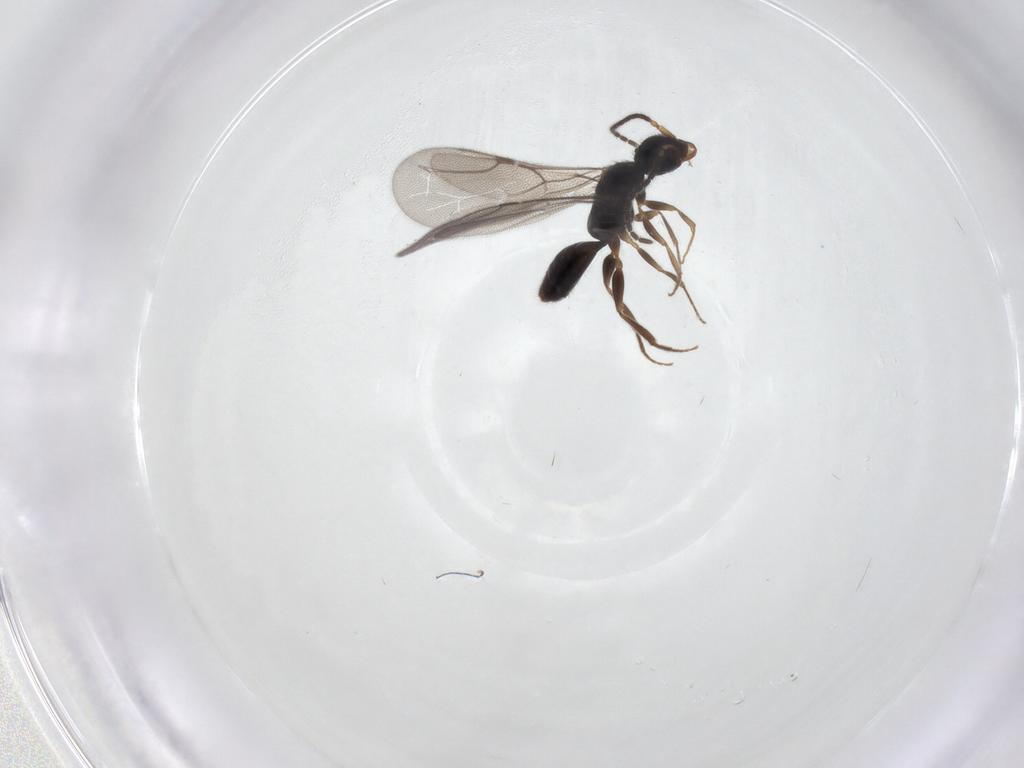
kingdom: Animalia
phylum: Arthropoda
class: Insecta
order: Hymenoptera
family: Bethylidae
